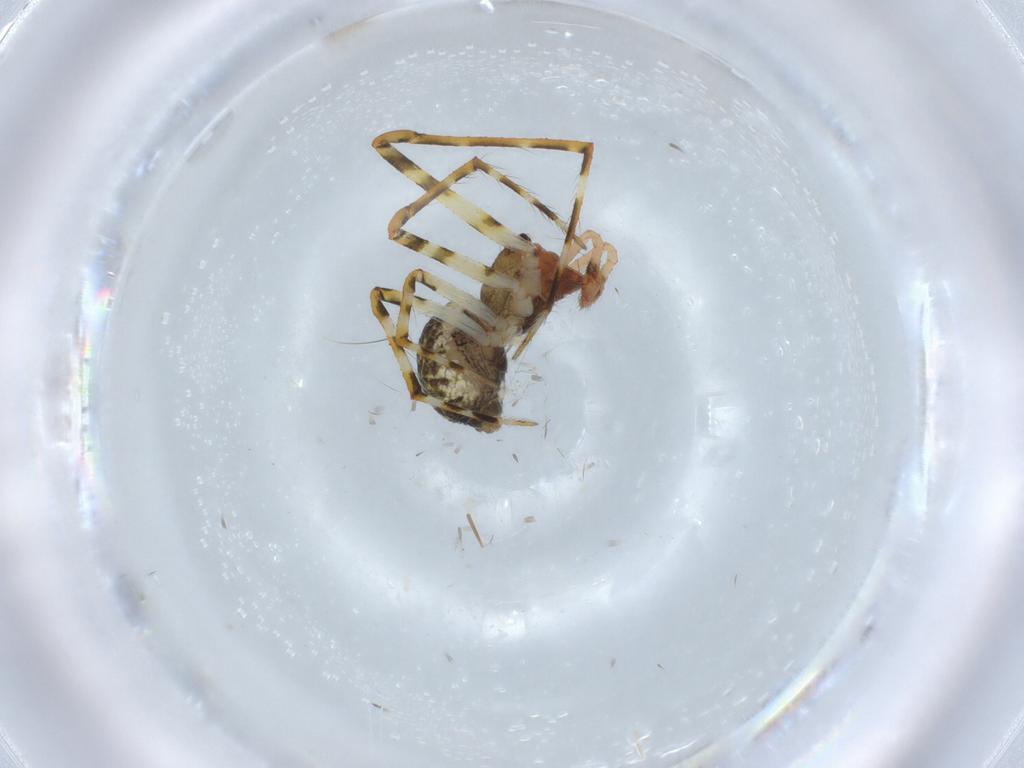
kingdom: Animalia
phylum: Arthropoda
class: Arachnida
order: Araneae
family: Theridiidae
